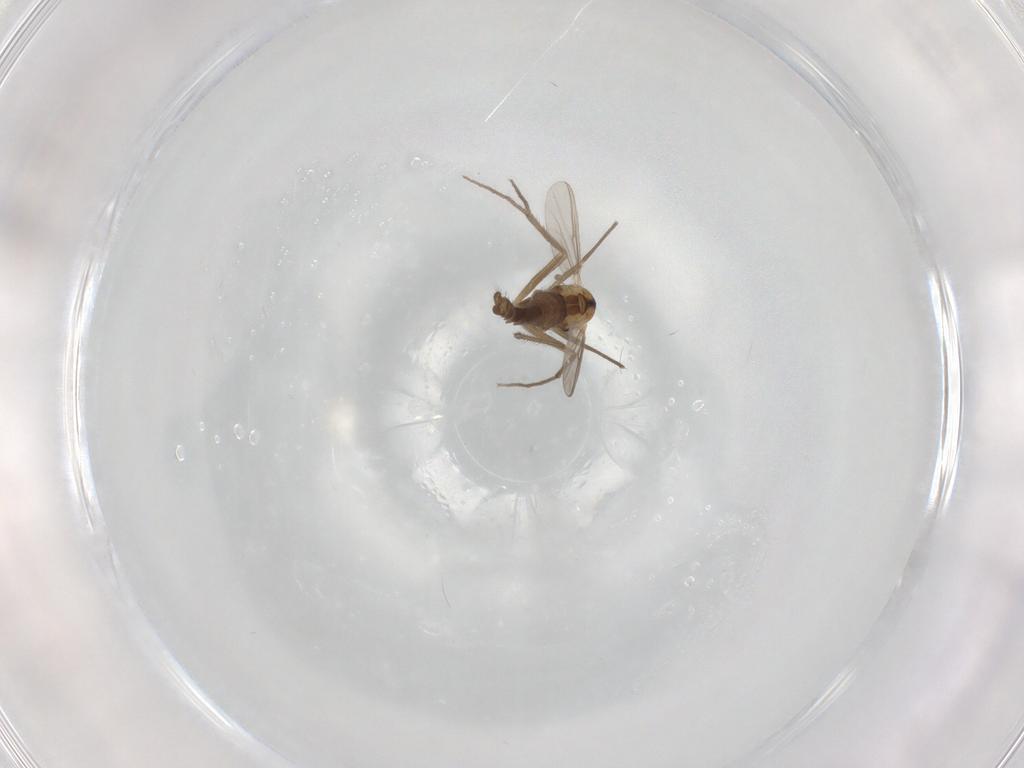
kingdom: Animalia
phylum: Arthropoda
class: Insecta
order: Diptera
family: Chironomidae
